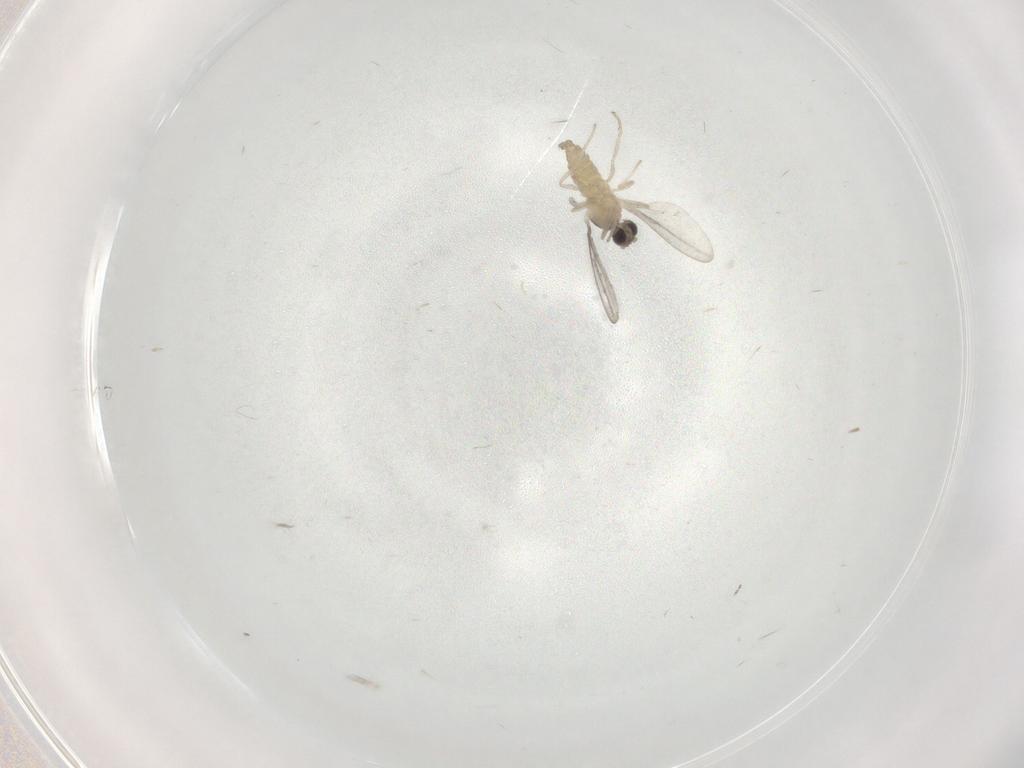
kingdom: Animalia
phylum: Arthropoda
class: Insecta
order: Diptera
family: Cecidomyiidae
